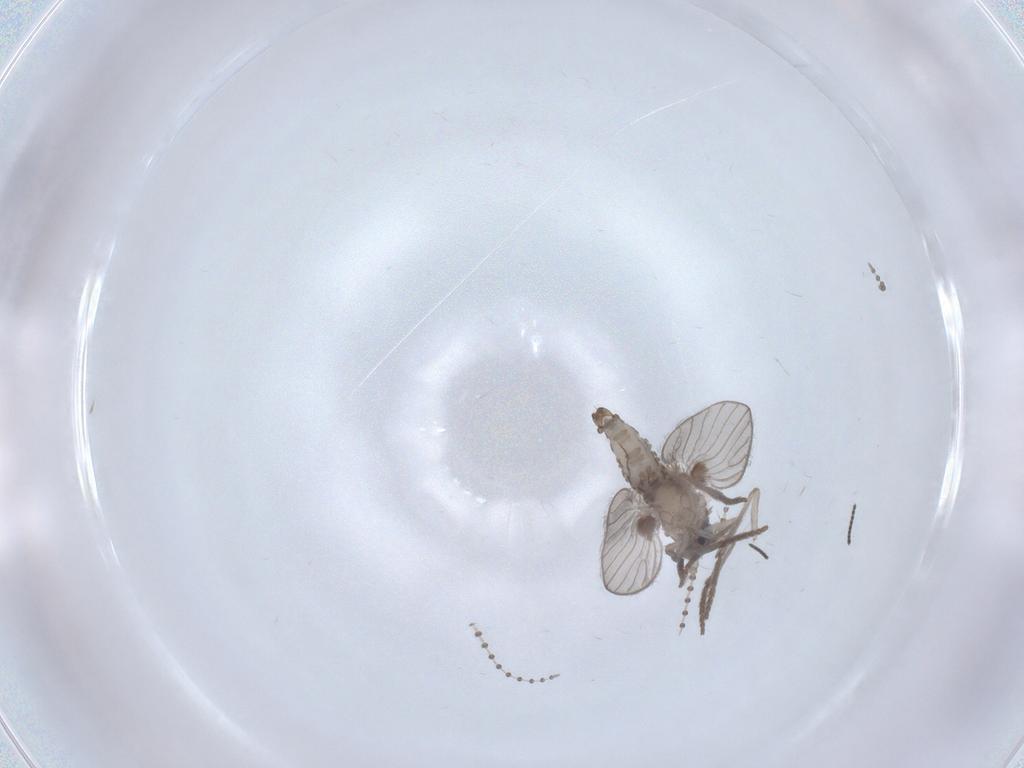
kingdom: Animalia
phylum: Arthropoda
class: Insecta
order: Diptera
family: Psychodidae
